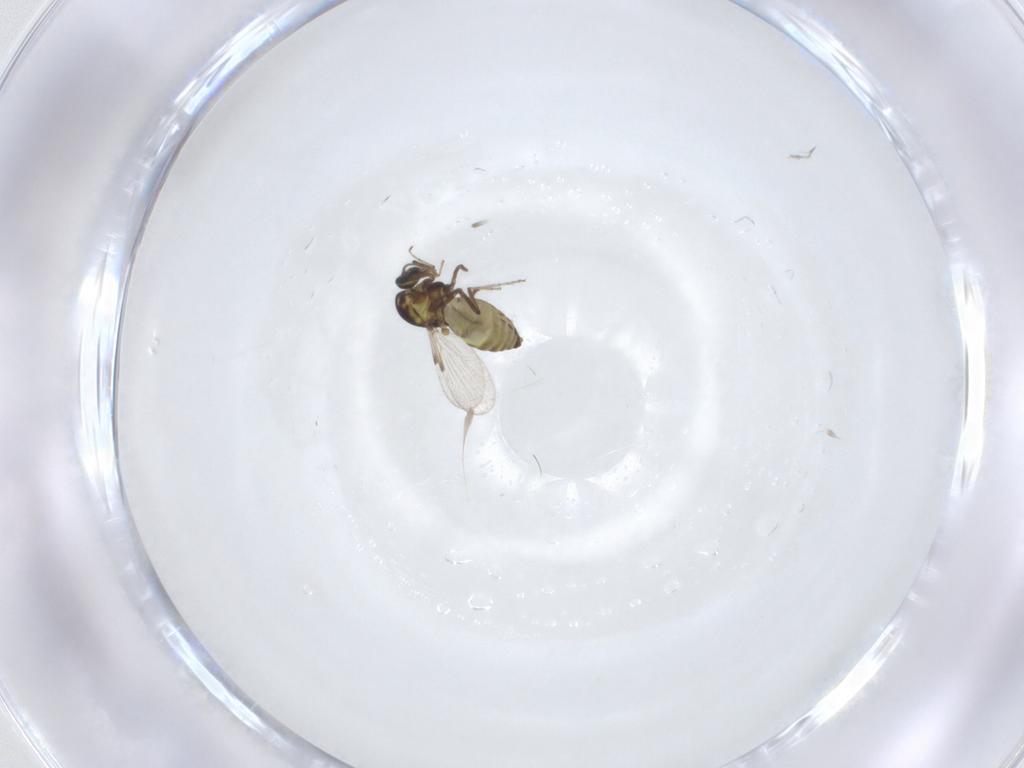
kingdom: Animalia
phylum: Arthropoda
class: Insecta
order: Diptera
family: Ceratopogonidae
